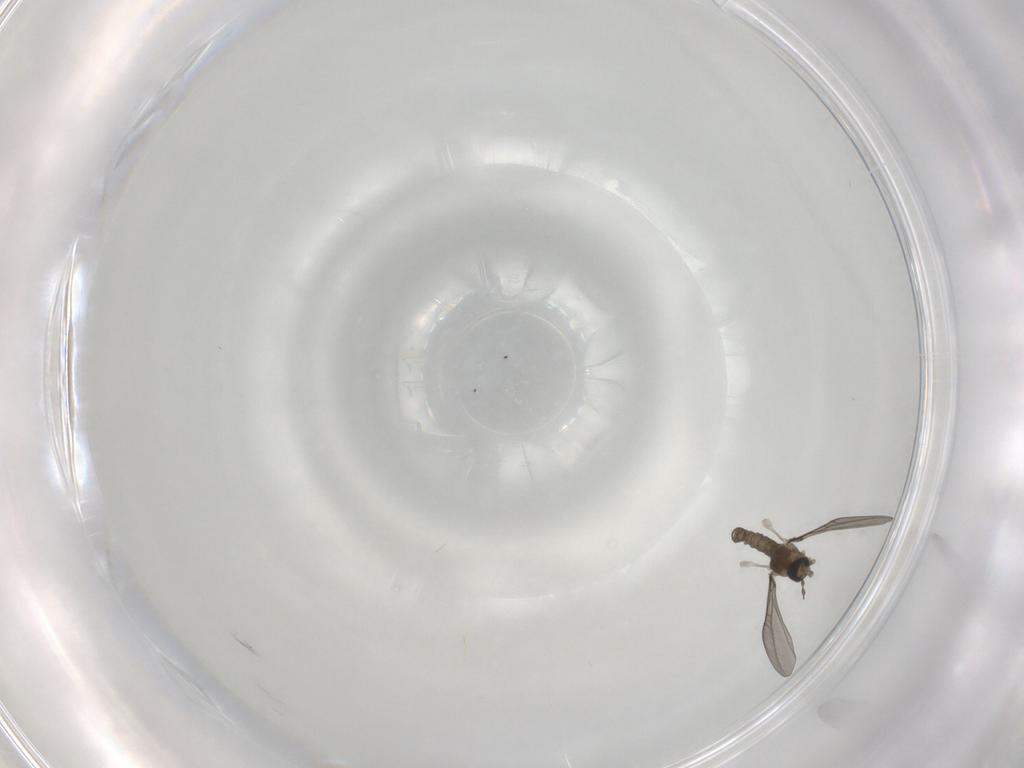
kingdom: Animalia
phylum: Arthropoda
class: Insecta
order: Diptera
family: Cecidomyiidae
